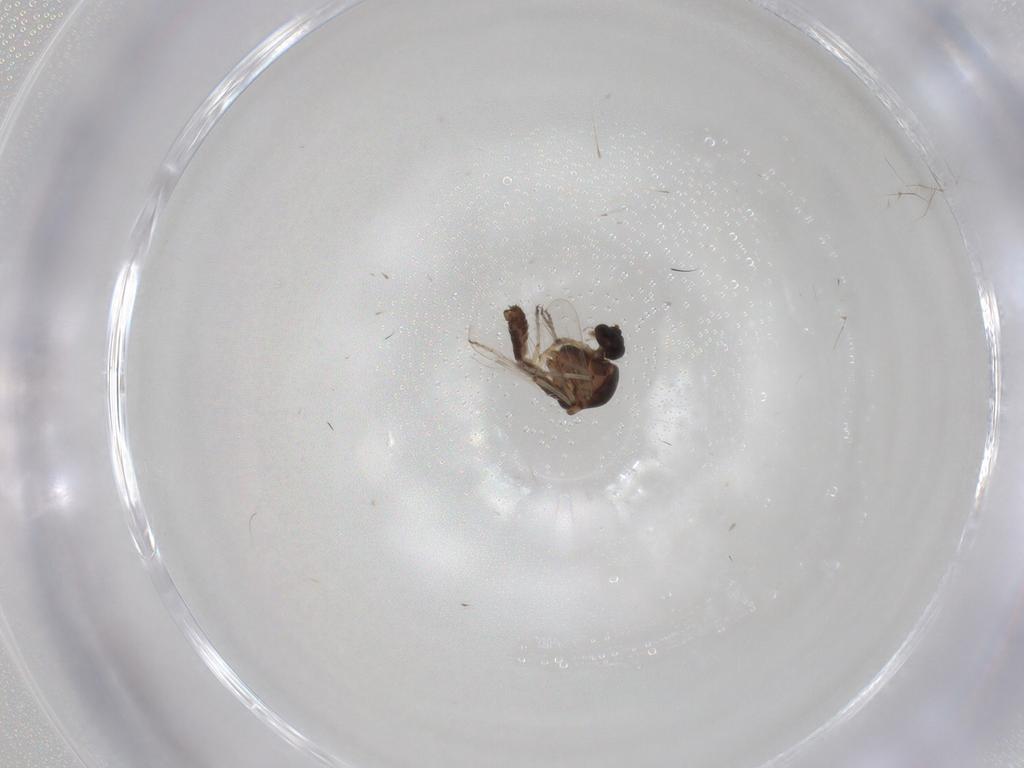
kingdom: Animalia
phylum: Arthropoda
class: Insecta
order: Diptera
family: Ceratopogonidae
